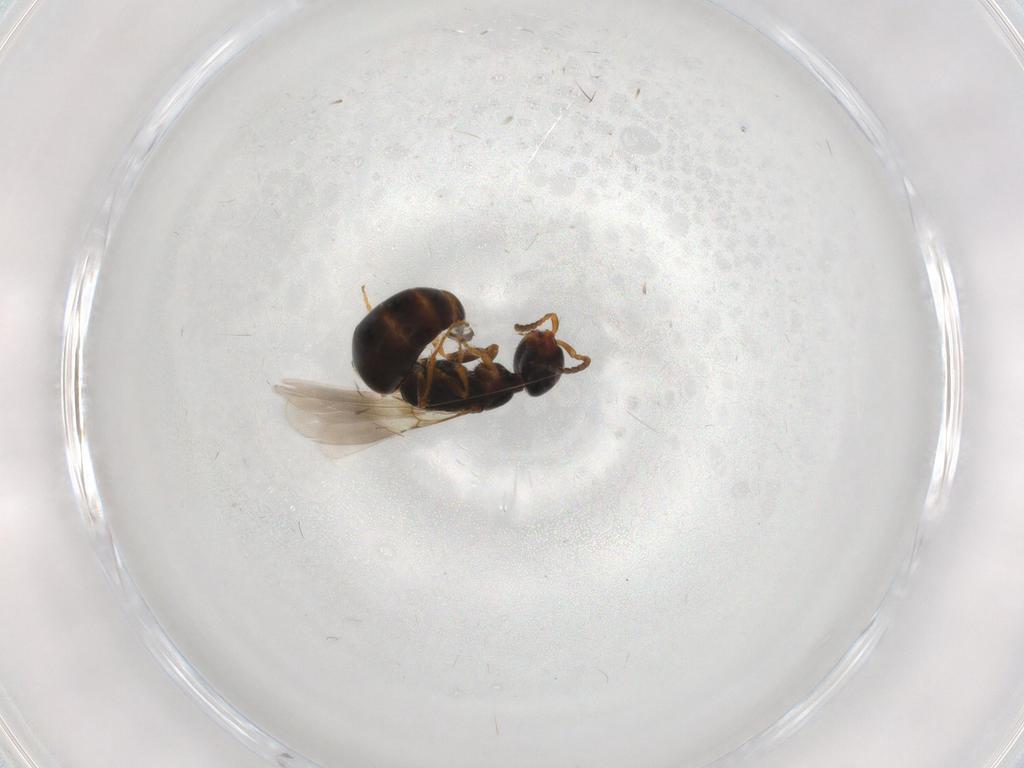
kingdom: Animalia
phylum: Arthropoda
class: Insecta
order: Hymenoptera
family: Bethylidae
